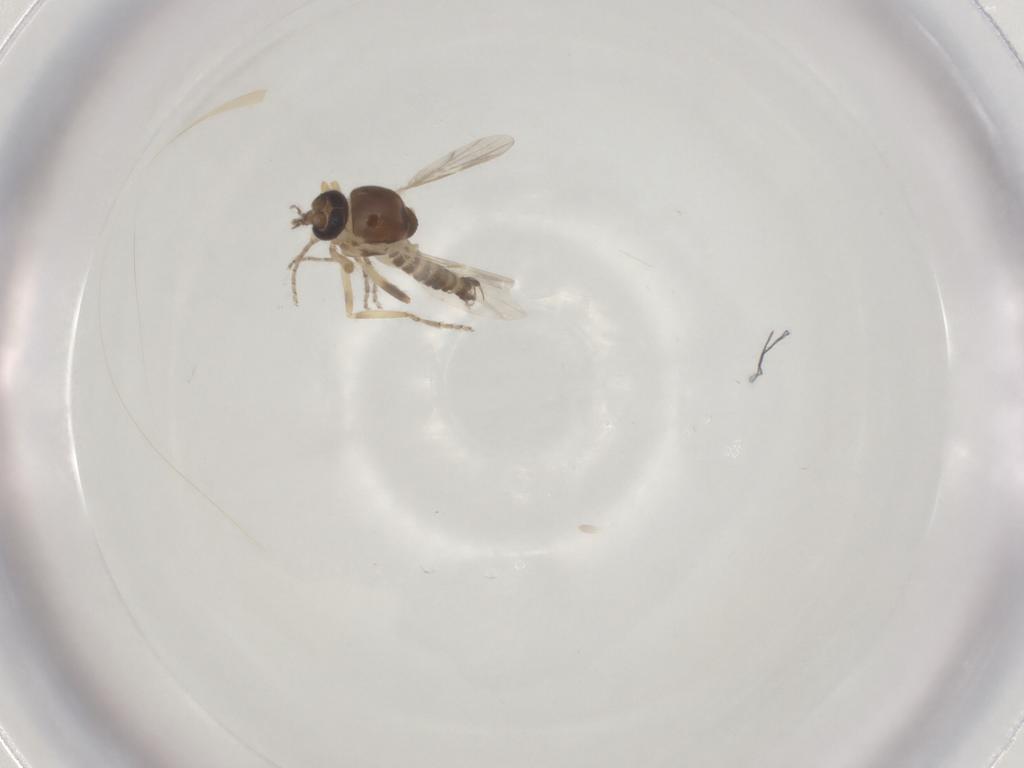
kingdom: Animalia
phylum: Arthropoda
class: Insecta
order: Diptera
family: Ceratopogonidae
